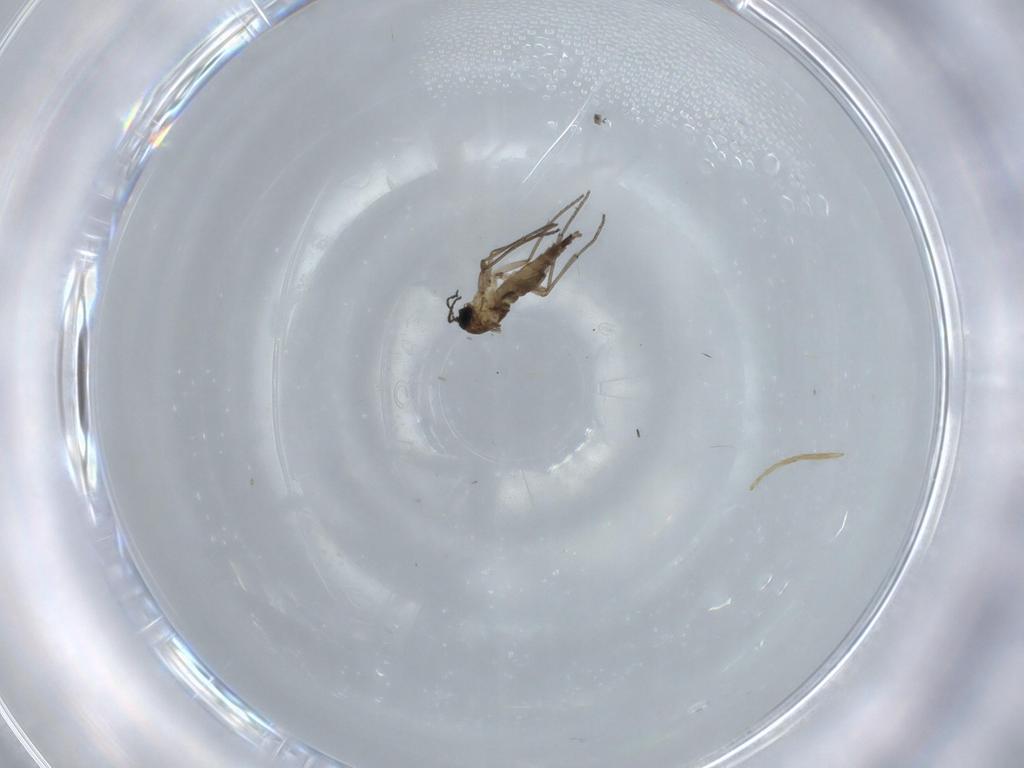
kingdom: Animalia
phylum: Arthropoda
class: Insecta
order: Diptera
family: Sciaridae
